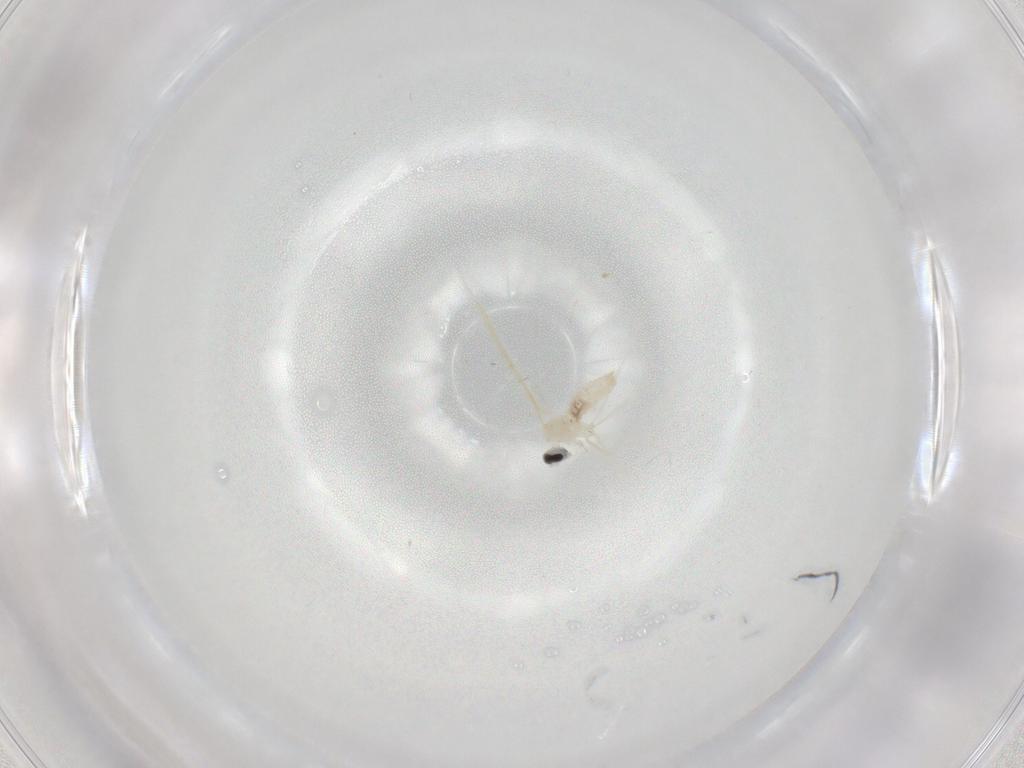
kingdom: Animalia
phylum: Arthropoda
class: Insecta
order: Diptera
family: Cecidomyiidae
